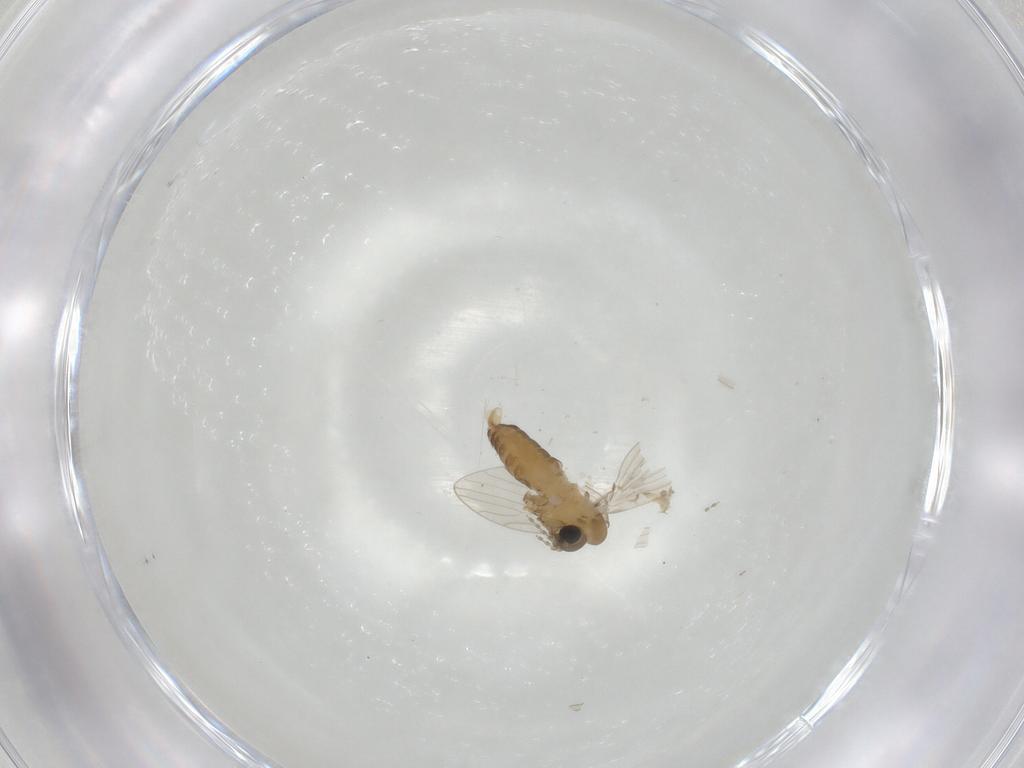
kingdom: Animalia
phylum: Arthropoda
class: Insecta
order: Diptera
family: Psychodidae
